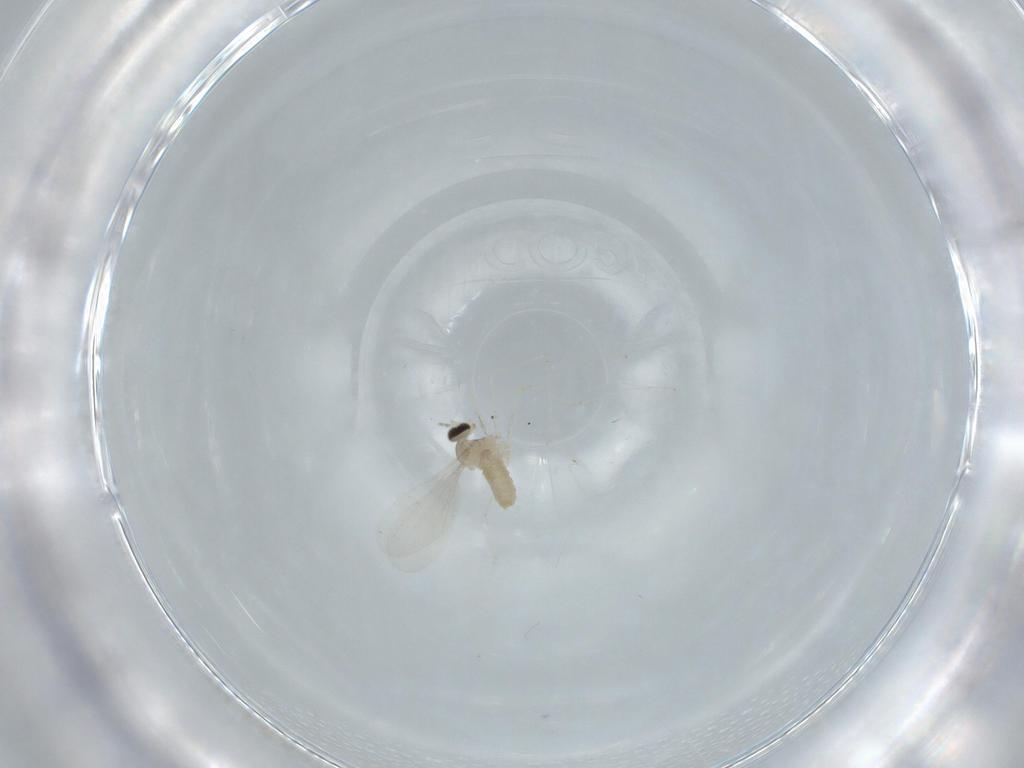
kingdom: Animalia
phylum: Arthropoda
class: Insecta
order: Diptera
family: Cecidomyiidae
